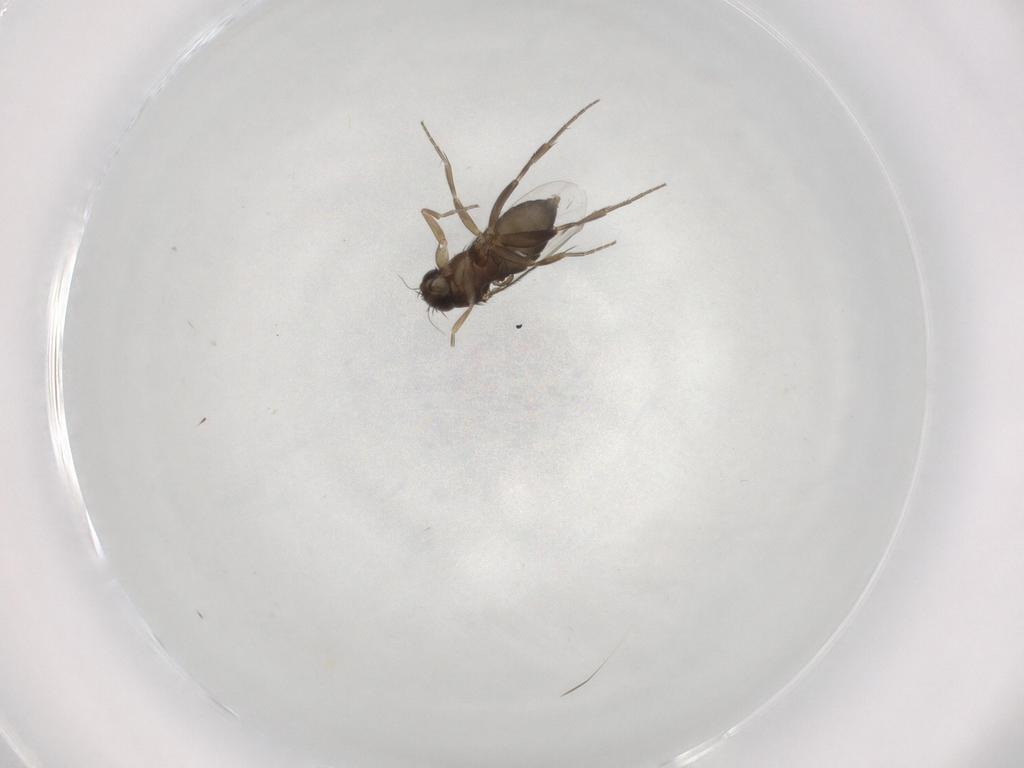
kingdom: Animalia
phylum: Arthropoda
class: Insecta
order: Diptera
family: Phoridae
